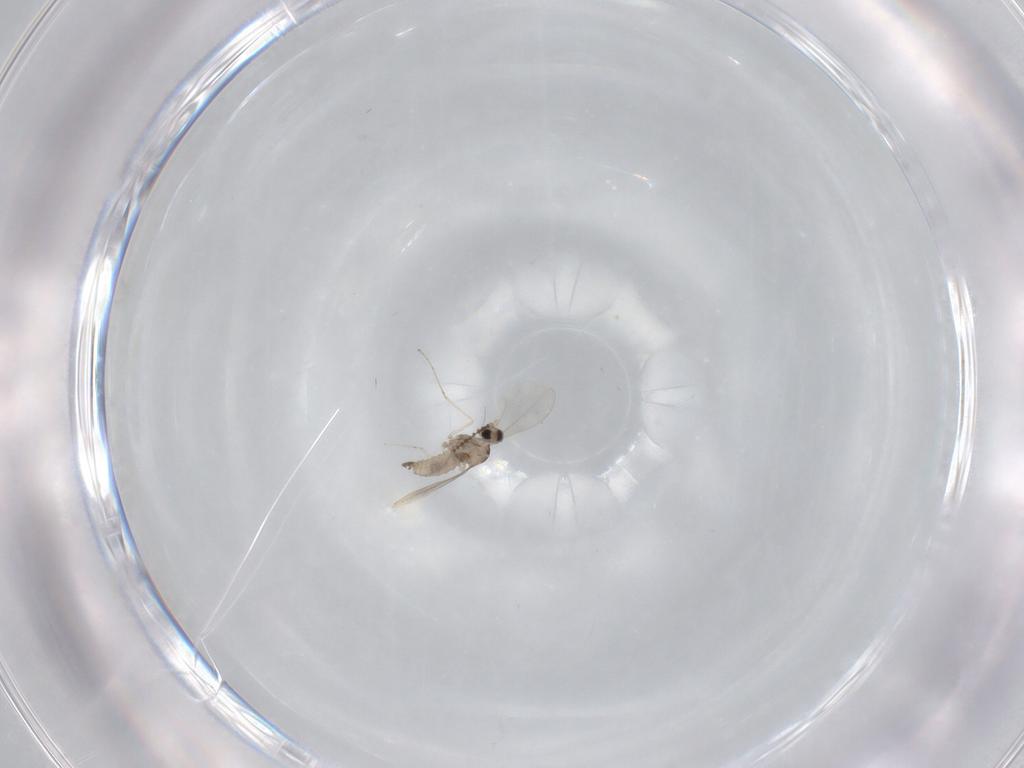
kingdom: Animalia
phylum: Arthropoda
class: Insecta
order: Diptera
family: Cecidomyiidae
